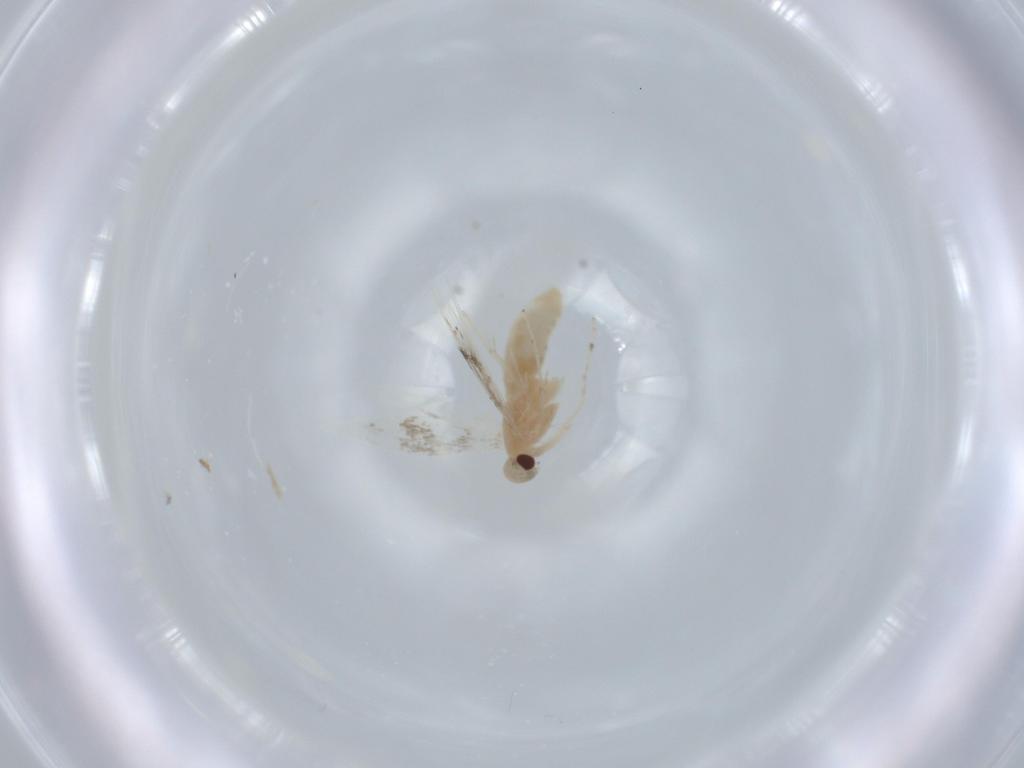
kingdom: Animalia
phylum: Arthropoda
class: Insecta
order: Lepidoptera
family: Gracillariidae
